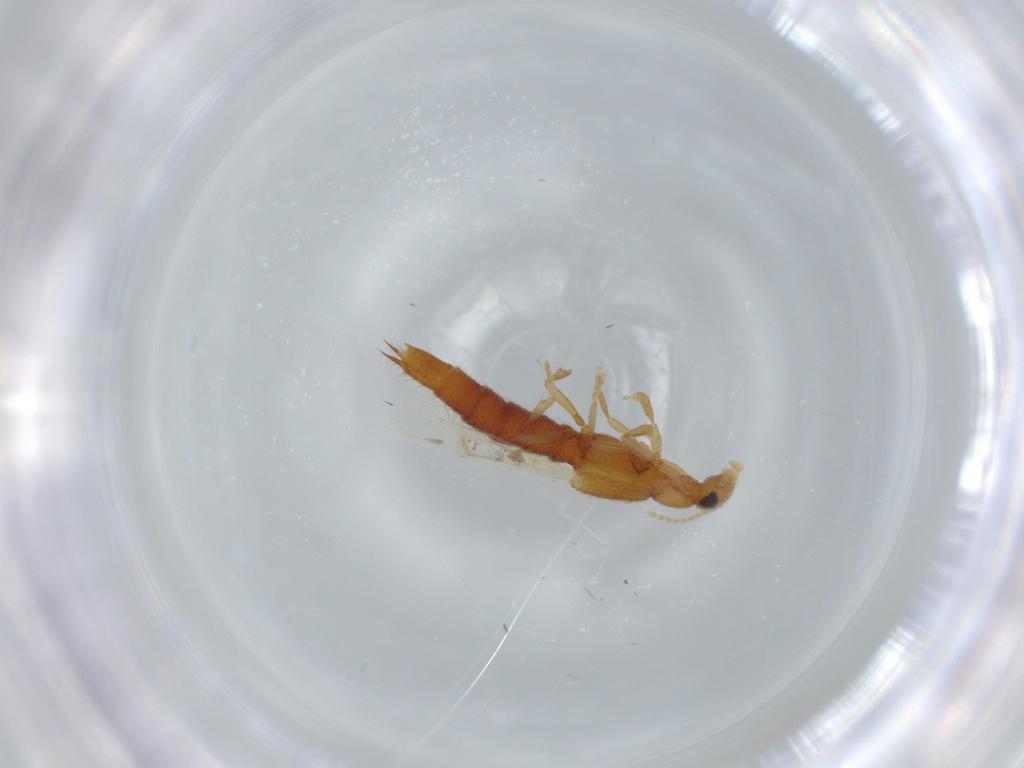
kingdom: Animalia
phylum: Arthropoda
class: Insecta
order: Coleoptera
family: Staphylinidae
